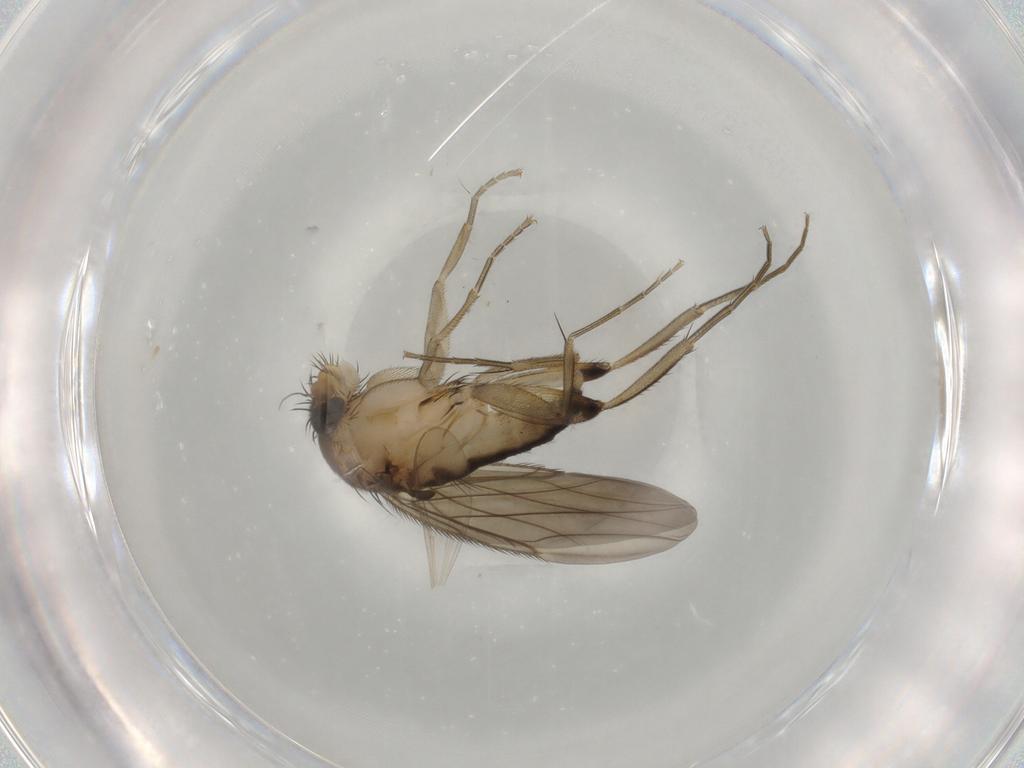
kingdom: Animalia
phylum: Arthropoda
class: Insecta
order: Diptera
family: Phoridae
